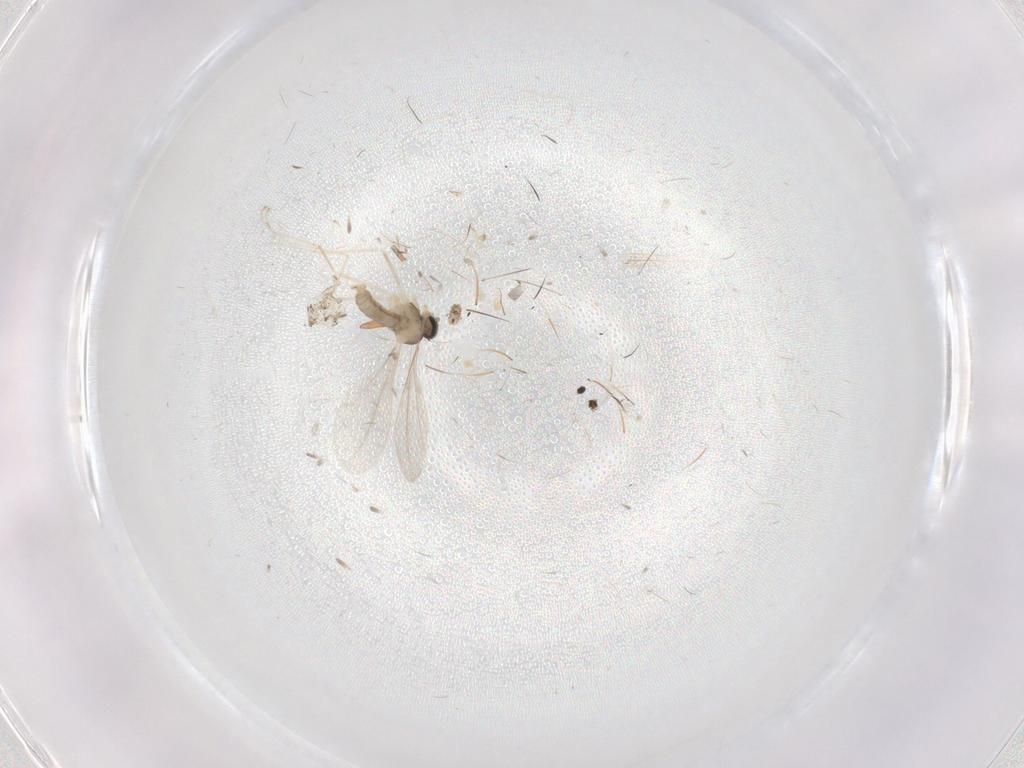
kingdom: Animalia
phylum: Arthropoda
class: Insecta
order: Diptera
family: Cecidomyiidae
